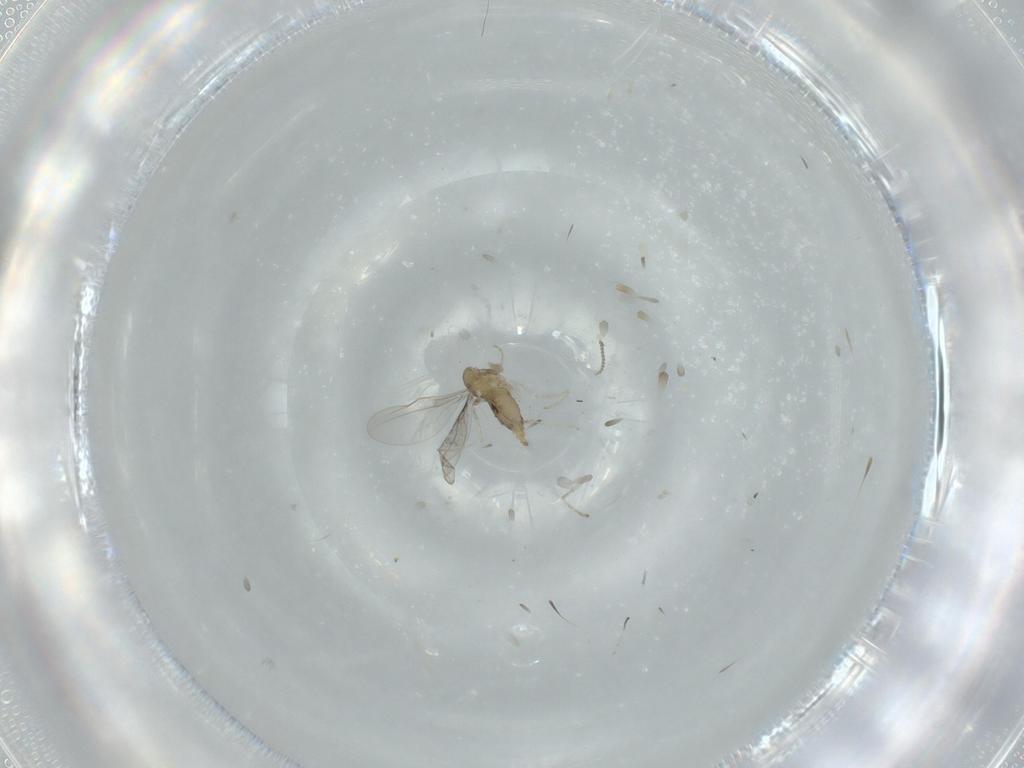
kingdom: Animalia
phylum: Arthropoda
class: Insecta
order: Diptera
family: Cecidomyiidae
